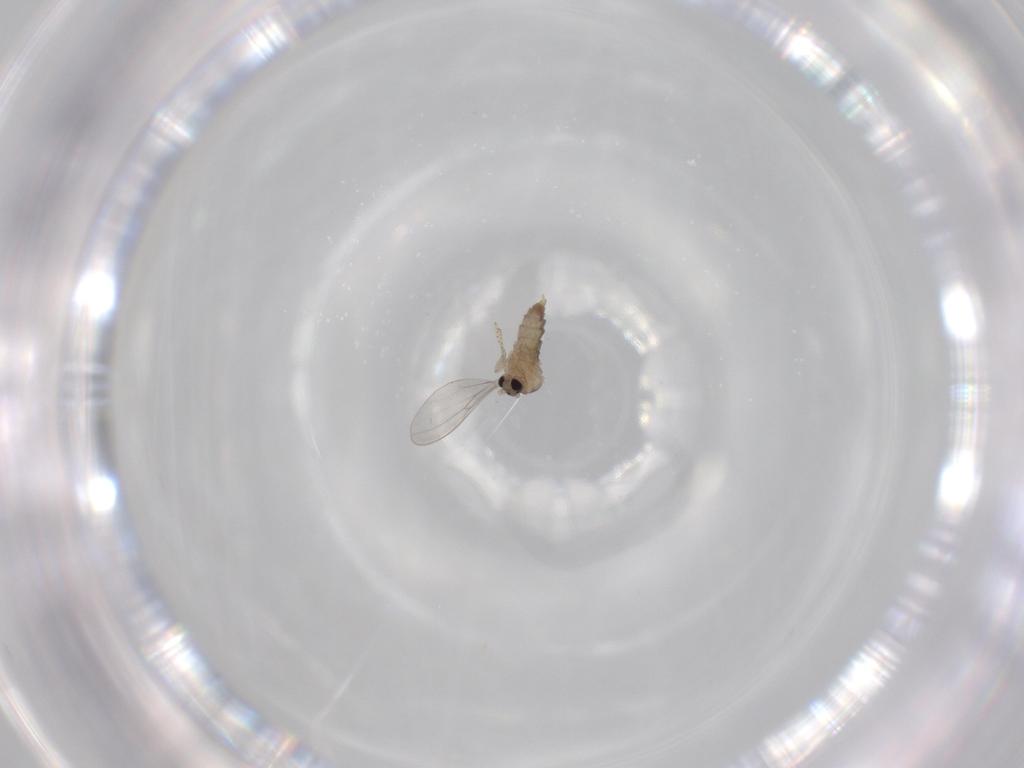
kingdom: Animalia
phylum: Arthropoda
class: Insecta
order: Diptera
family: Cecidomyiidae
